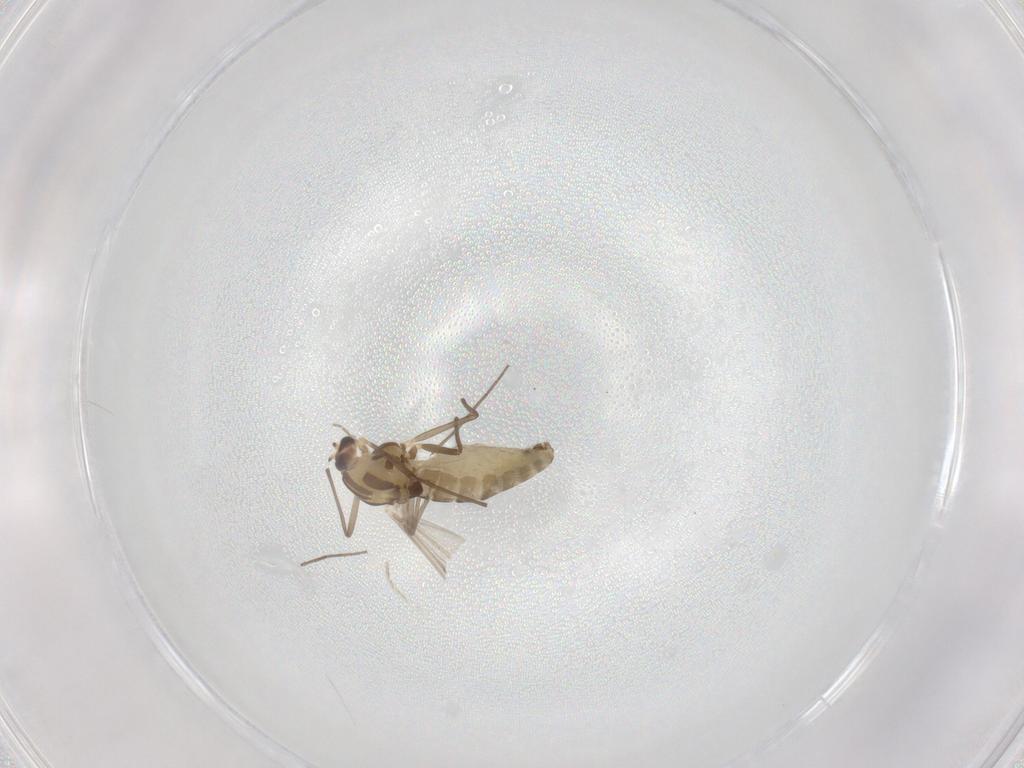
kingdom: Animalia
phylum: Arthropoda
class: Insecta
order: Diptera
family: Chironomidae
